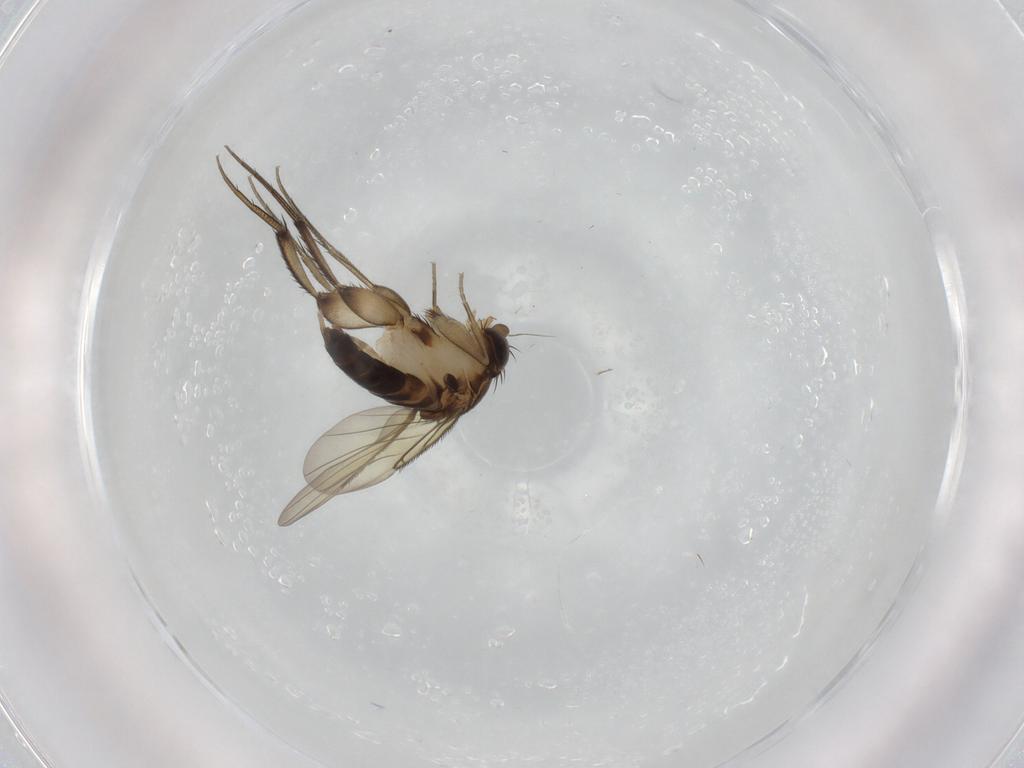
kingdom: Animalia
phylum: Arthropoda
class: Insecta
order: Diptera
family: Phoridae
